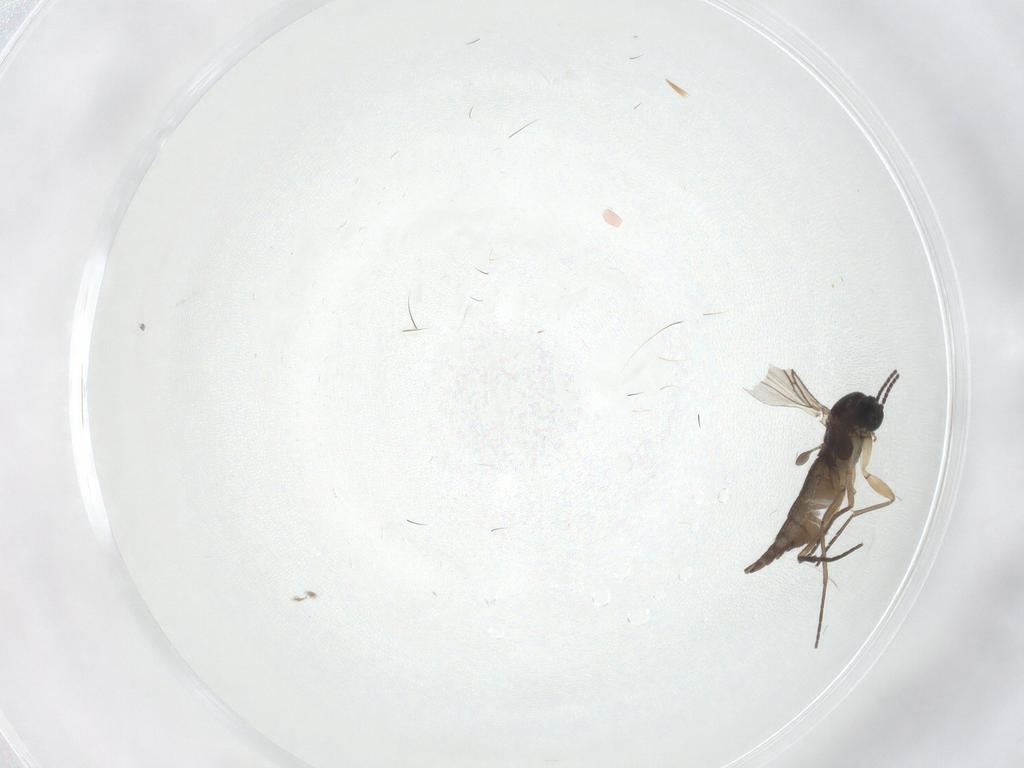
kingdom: Animalia
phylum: Arthropoda
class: Insecta
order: Diptera
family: Sciaridae
